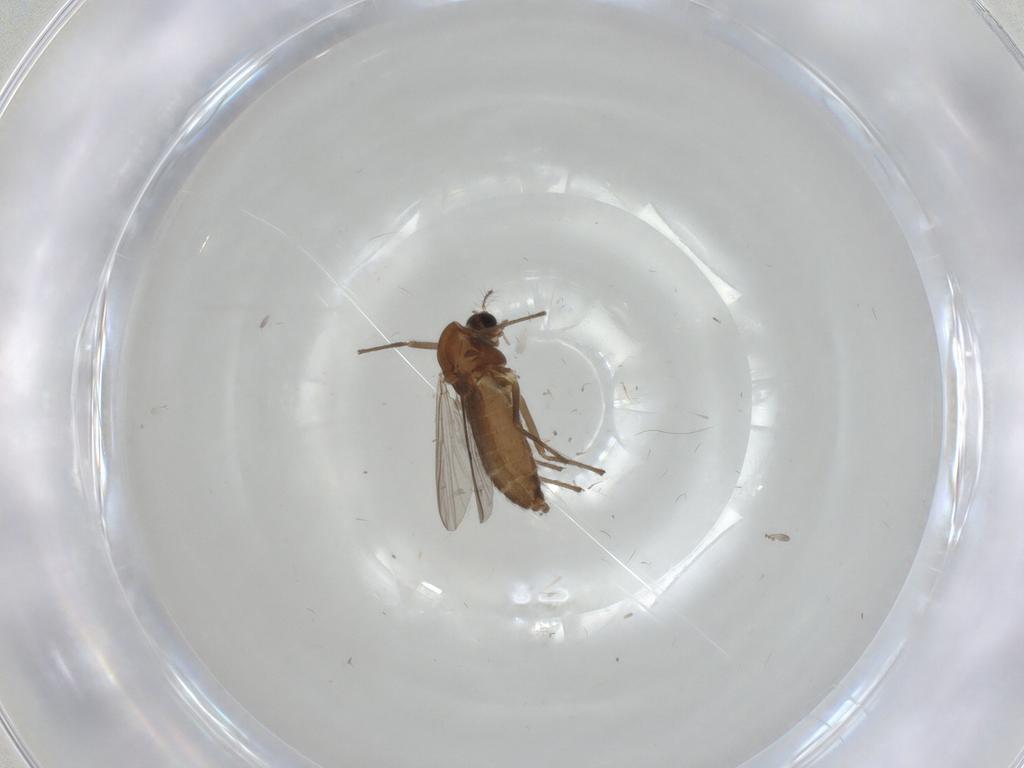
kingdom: Animalia
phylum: Arthropoda
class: Insecta
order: Diptera
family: Chironomidae
